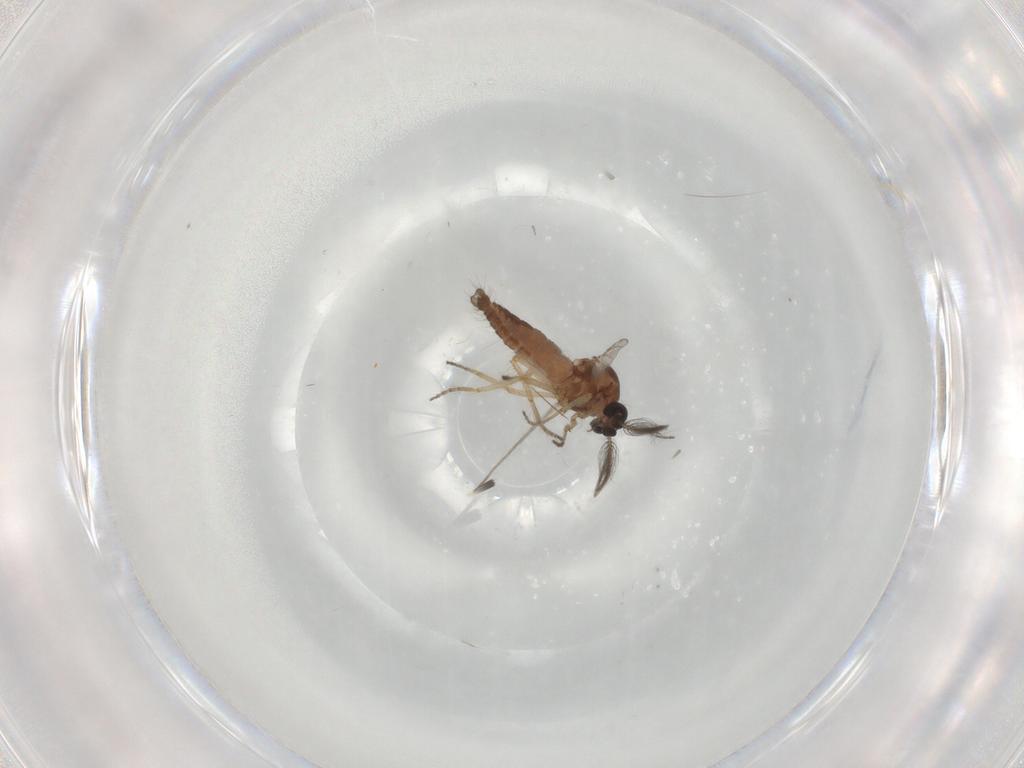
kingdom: Animalia
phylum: Arthropoda
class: Insecta
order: Diptera
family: Ceratopogonidae
